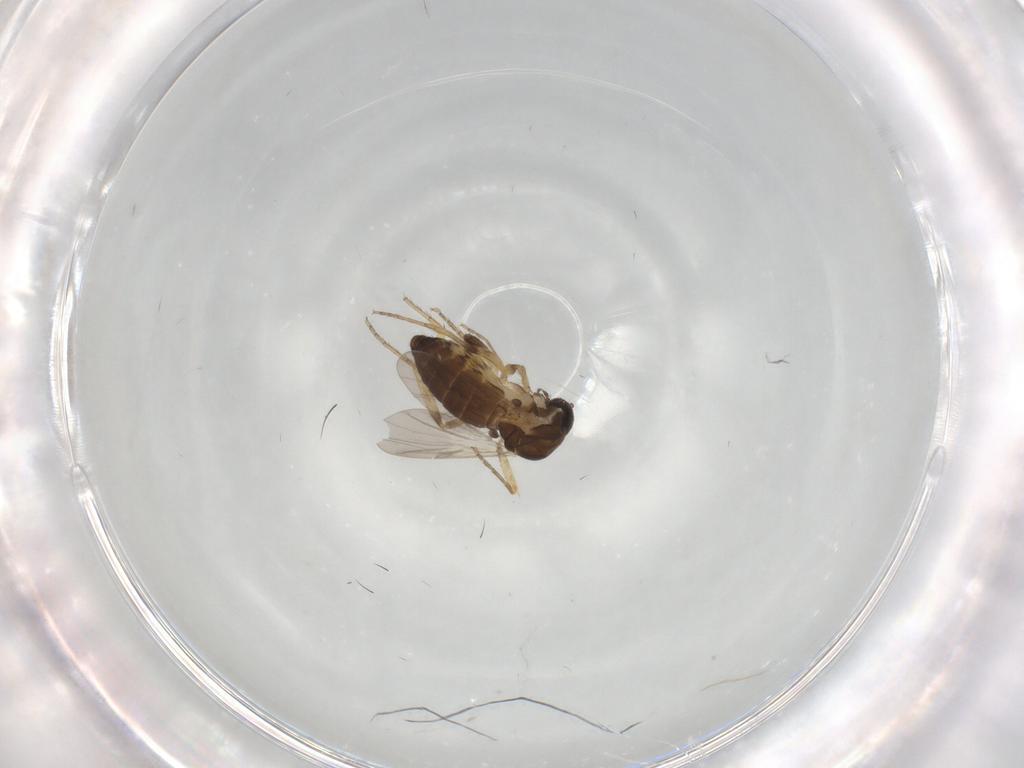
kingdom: Animalia
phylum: Arthropoda
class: Insecta
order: Diptera
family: Ceratopogonidae
